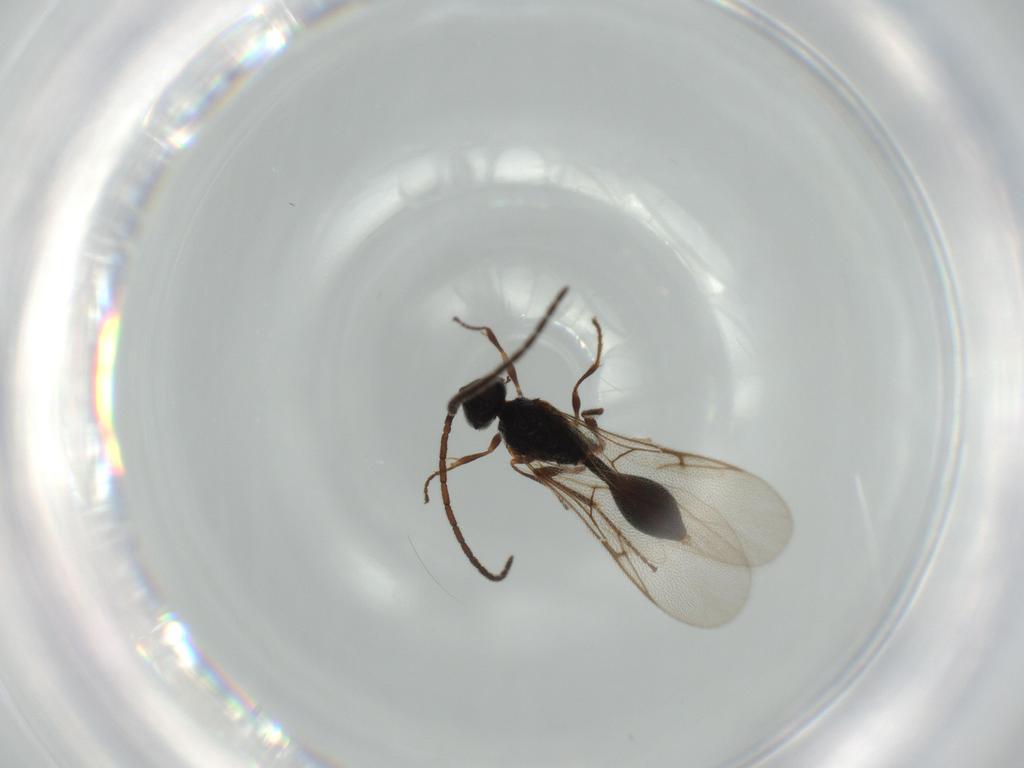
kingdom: Animalia
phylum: Arthropoda
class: Insecta
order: Hymenoptera
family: Ichneumonidae
